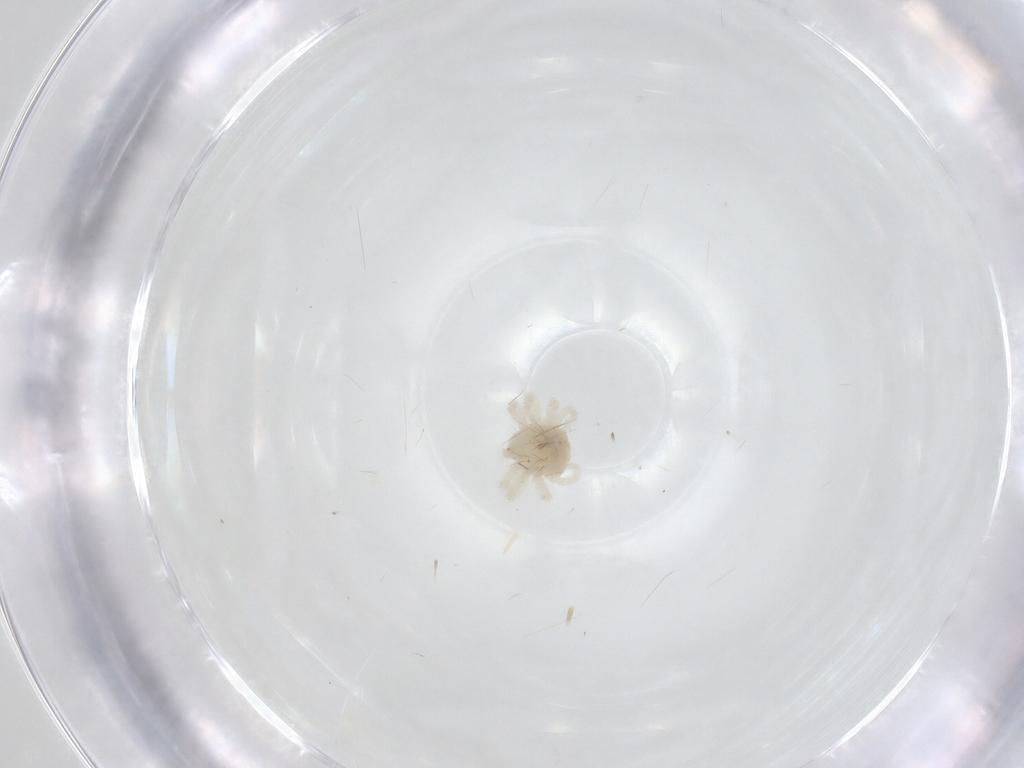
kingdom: Animalia
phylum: Arthropoda
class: Arachnida
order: Trombidiformes
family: Anystidae
